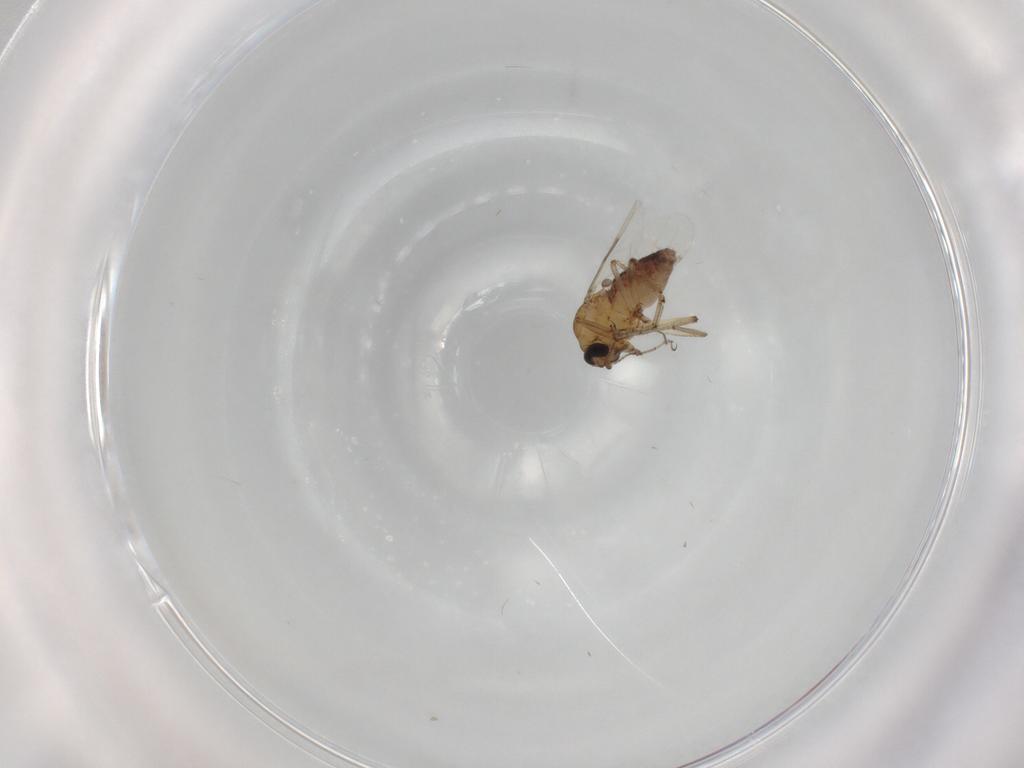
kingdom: Animalia
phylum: Arthropoda
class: Insecta
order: Diptera
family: Ceratopogonidae
